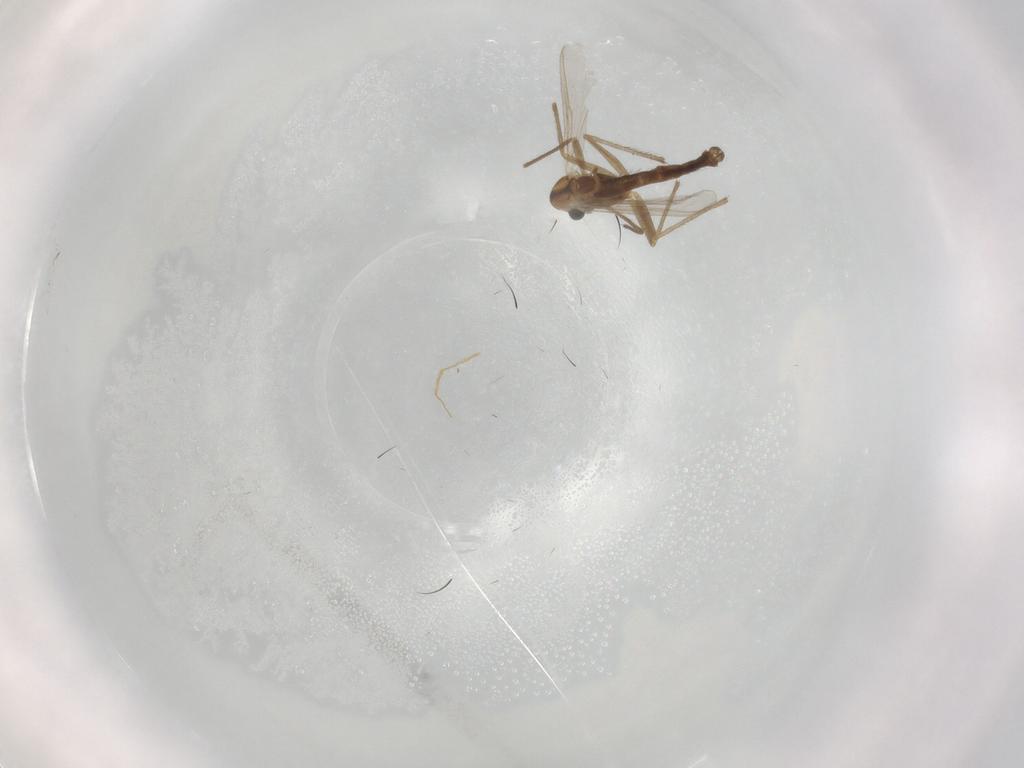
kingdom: Animalia
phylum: Arthropoda
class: Insecta
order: Diptera
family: Chironomidae
